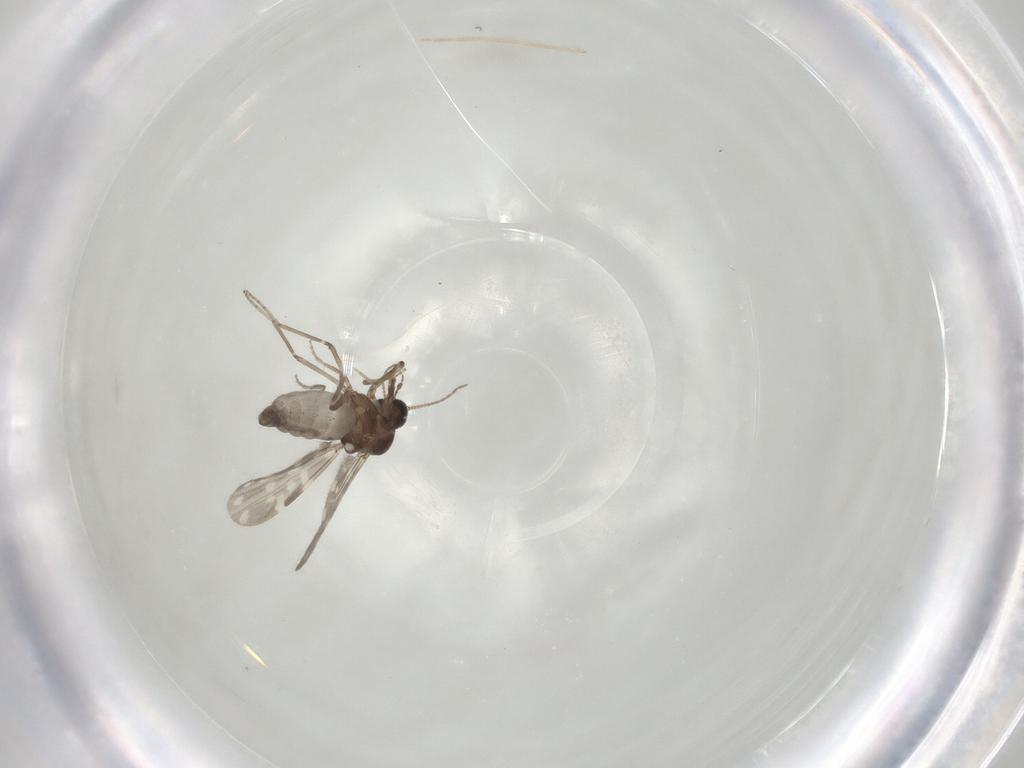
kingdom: Animalia
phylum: Arthropoda
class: Insecta
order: Diptera
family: Ceratopogonidae
